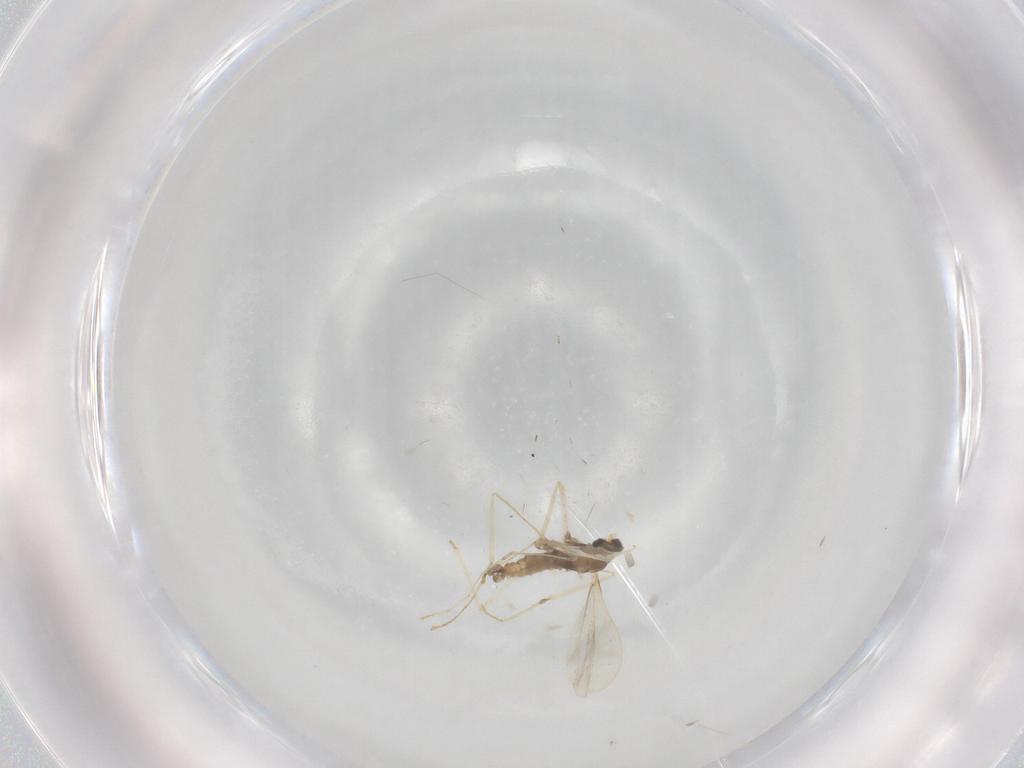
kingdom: Animalia
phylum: Arthropoda
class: Insecta
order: Diptera
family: Cecidomyiidae
